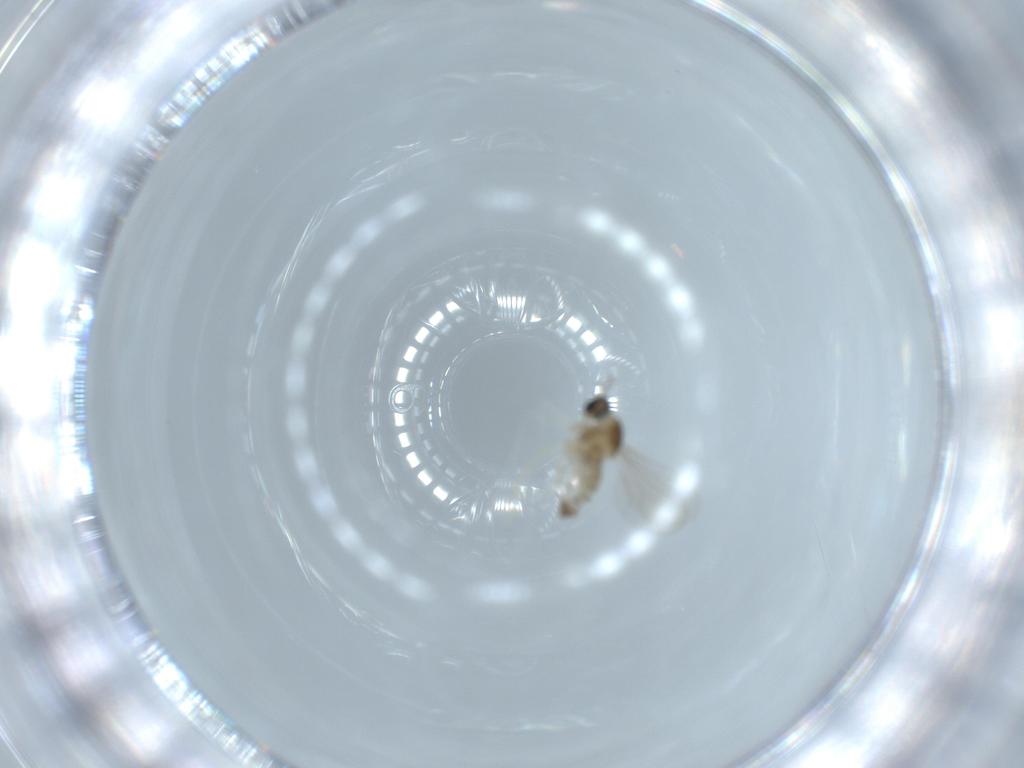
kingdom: Animalia
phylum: Arthropoda
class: Insecta
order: Diptera
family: Cecidomyiidae
